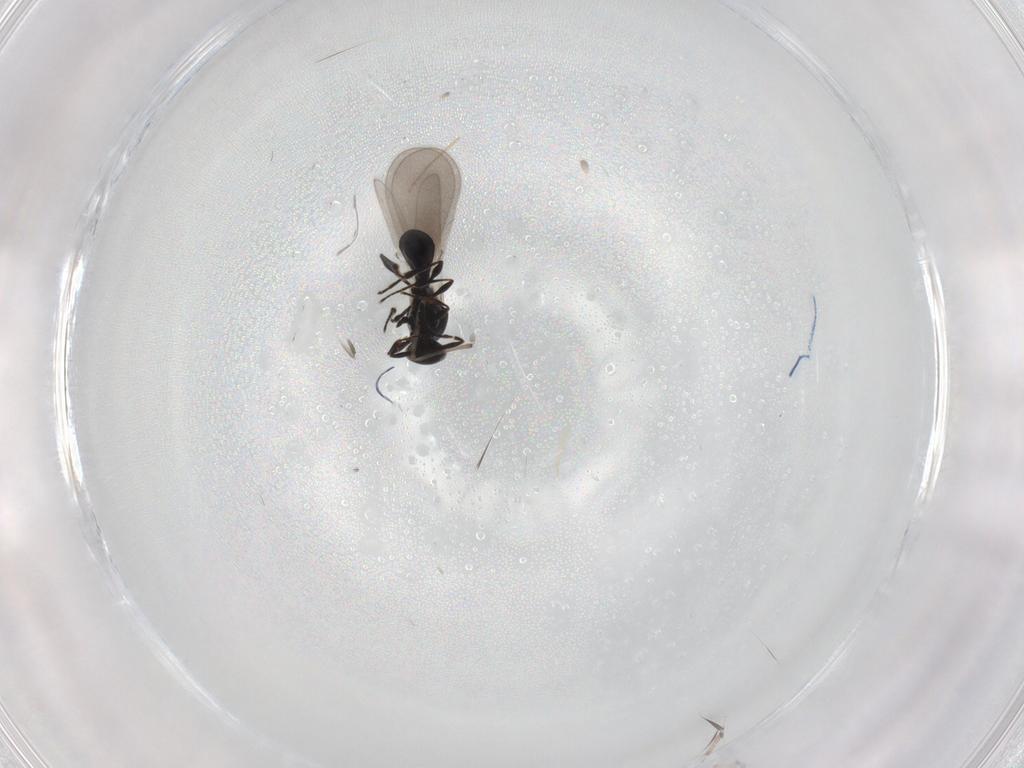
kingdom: Animalia
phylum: Arthropoda
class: Insecta
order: Hymenoptera
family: Platygastridae
